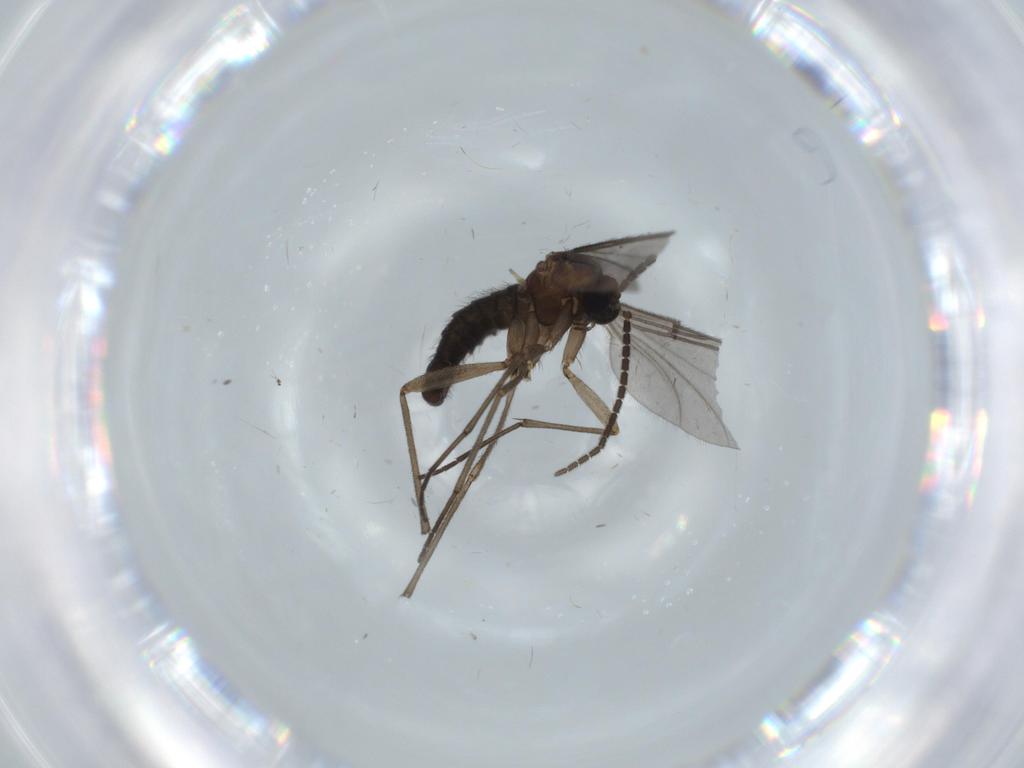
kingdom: Animalia
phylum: Arthropoda
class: Insecta
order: Diptera
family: Sciaridae
